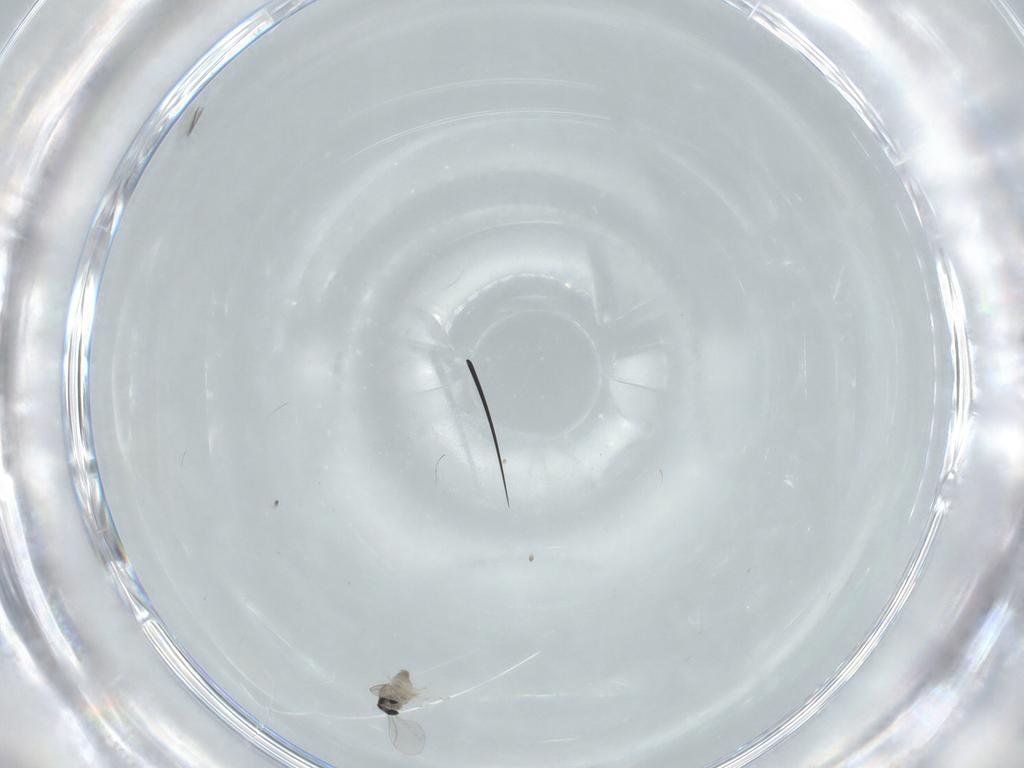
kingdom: Animalia
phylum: Arthropoda
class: Insecta
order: Diptera
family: Cecidomyiidae
